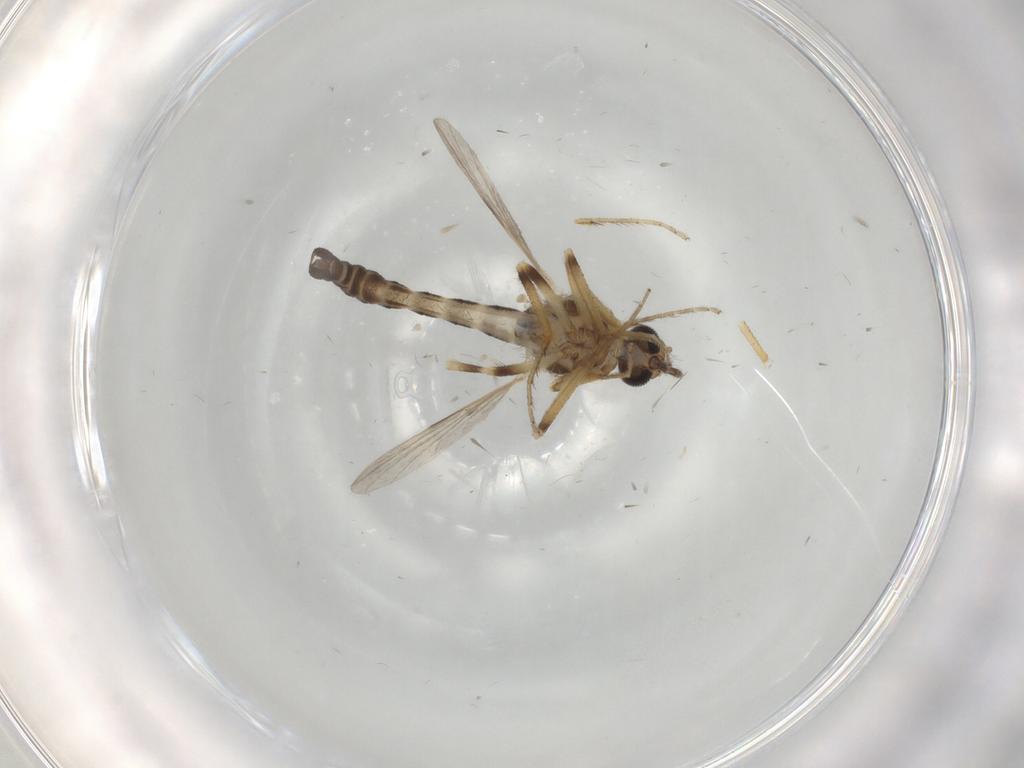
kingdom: Animalia
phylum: Arthropoda
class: Insecta
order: Diptera
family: Ceratopogonidae
